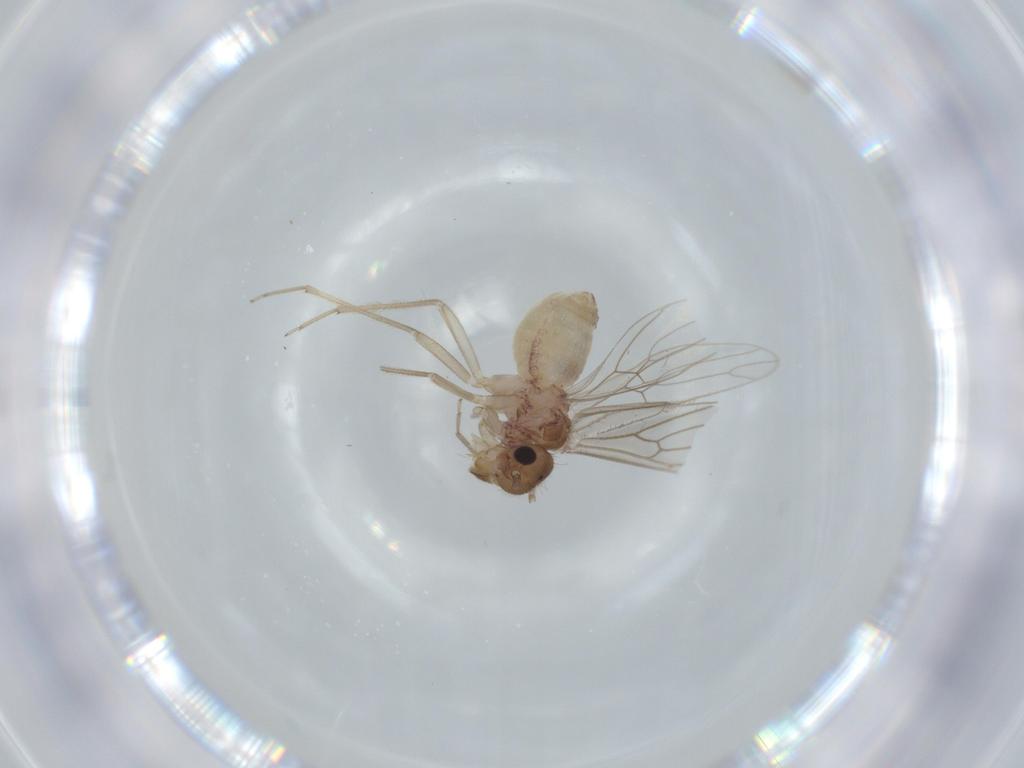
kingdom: Animalia
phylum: Arthropoda
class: Insecta
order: Psocodea
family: Cladiopsocidae
